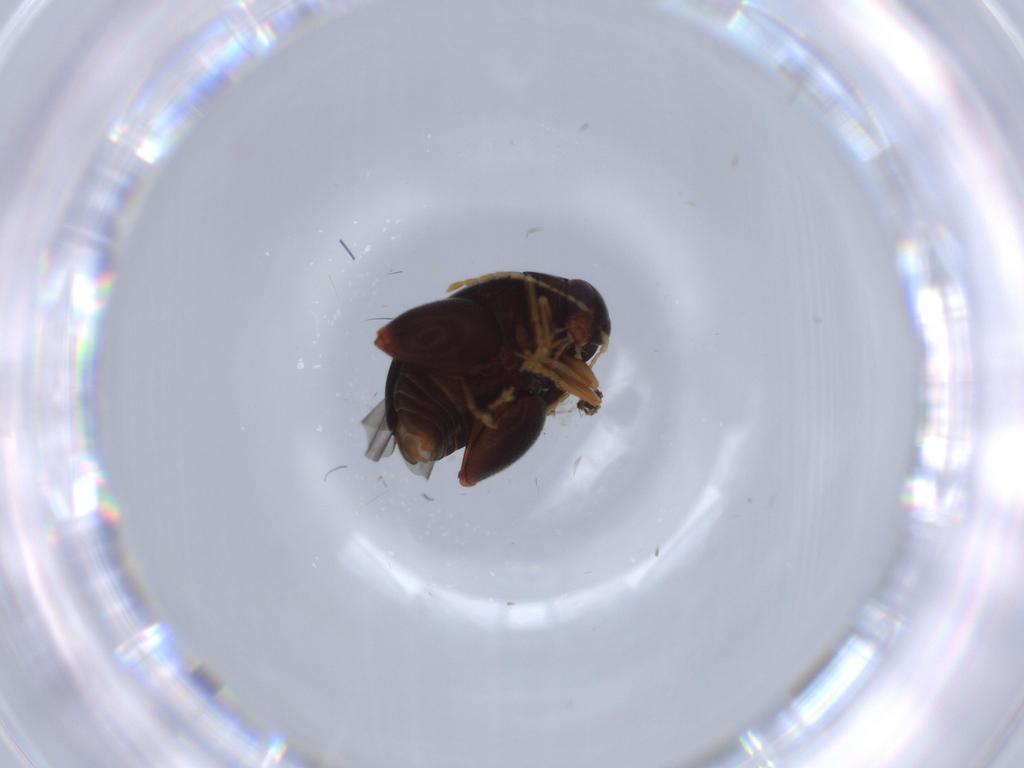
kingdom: Animalia
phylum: Arthropoda
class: Insecta
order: Coleoptera
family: Chrysomelidae
